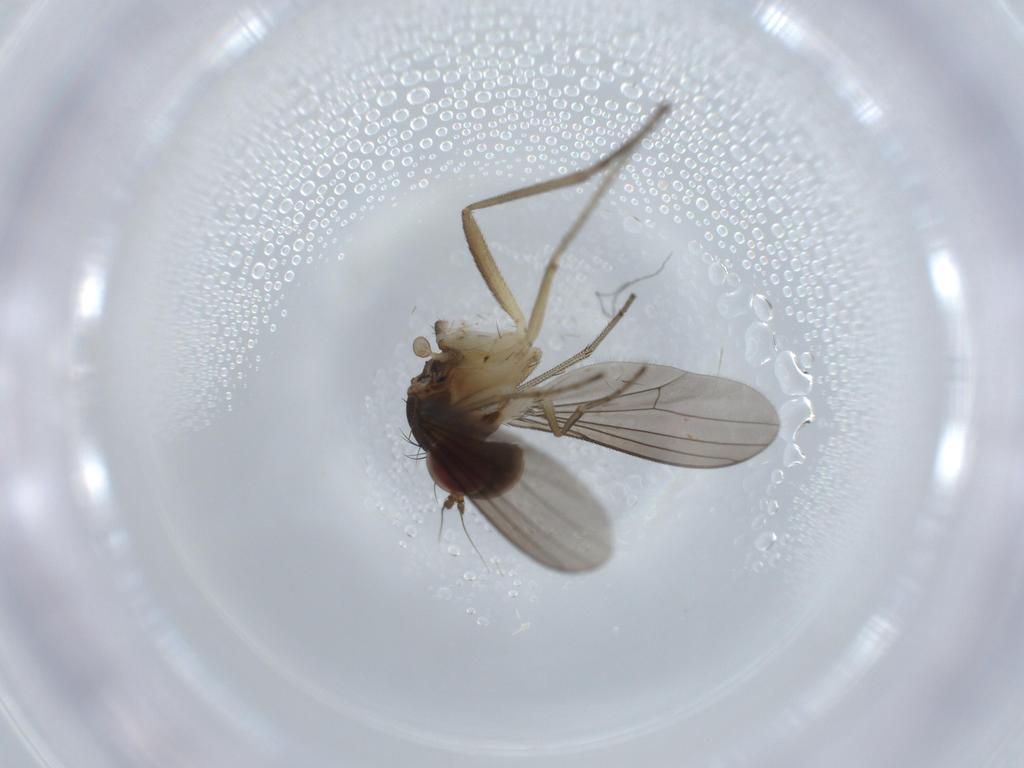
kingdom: Animalia
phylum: Arthropoda
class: Insecta
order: Diptera
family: Dolichopodidae
